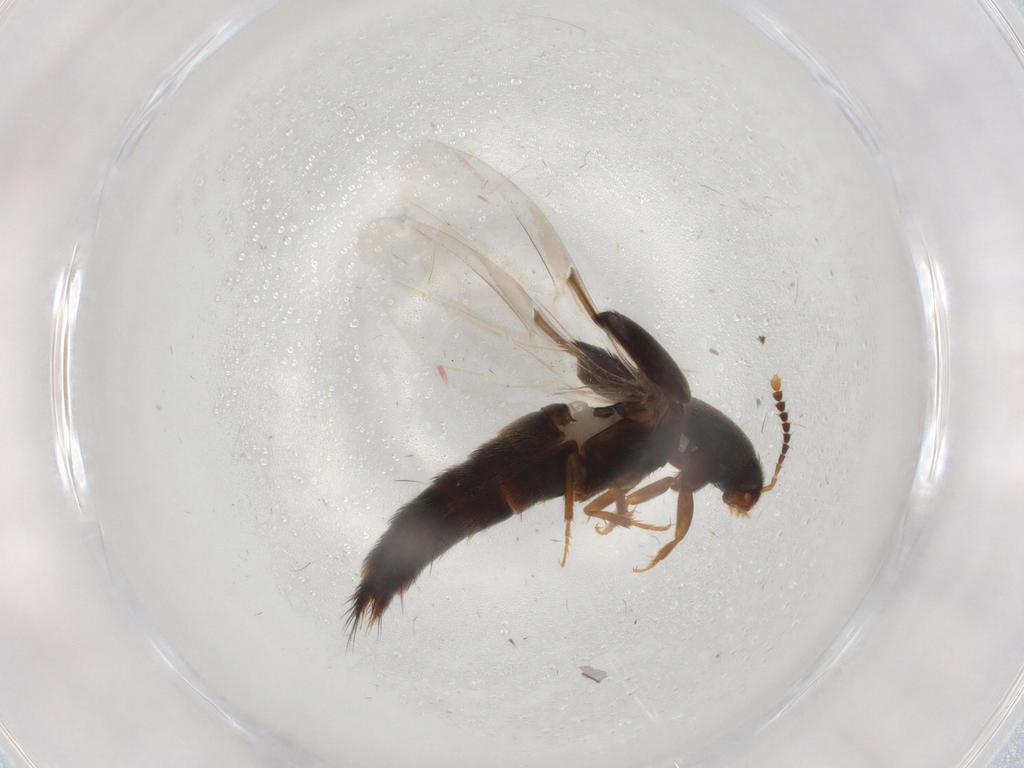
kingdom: Animalia
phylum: Arthropoda
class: Insecta
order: Coleoptera
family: Staphylinidae
